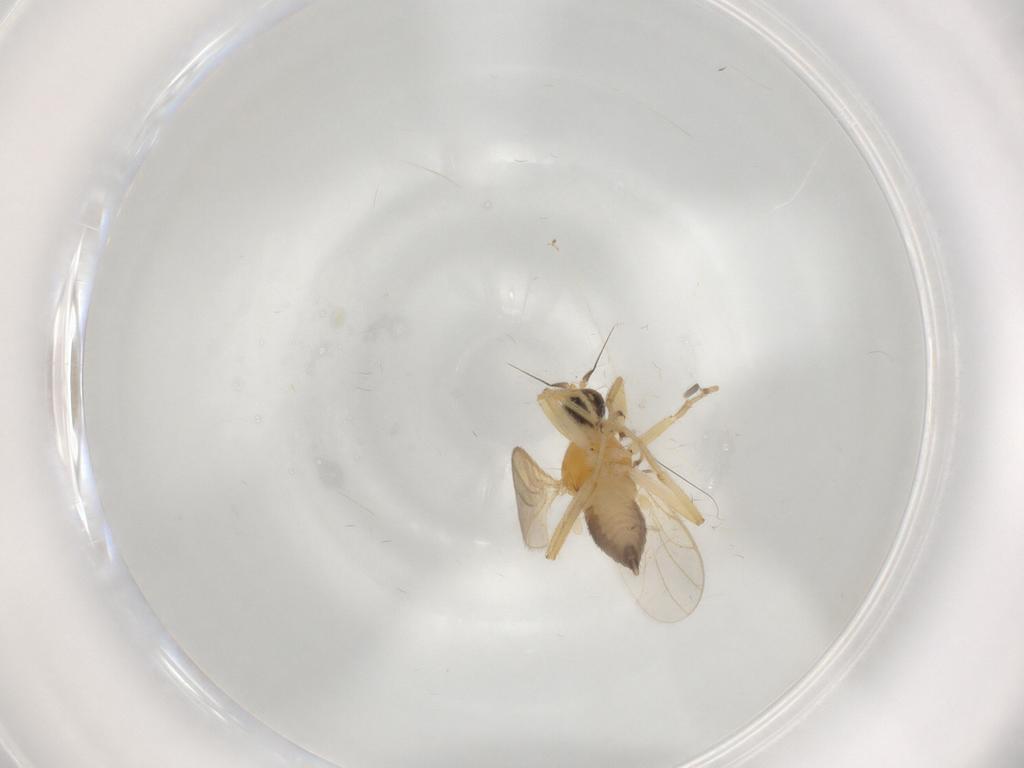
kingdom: Animalia
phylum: Arthropoda
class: Insecta
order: Diptera
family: Hybotidae
